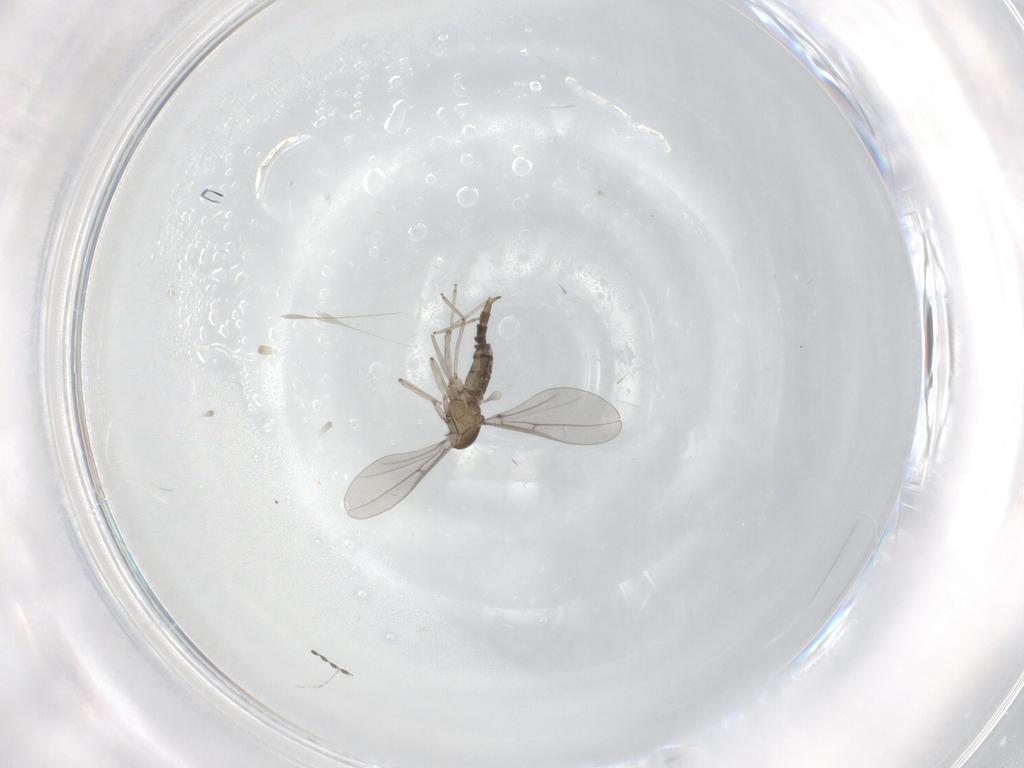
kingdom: Animalia
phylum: Arthropoda
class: Insecta
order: Diptera
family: Cecidomyiidae
